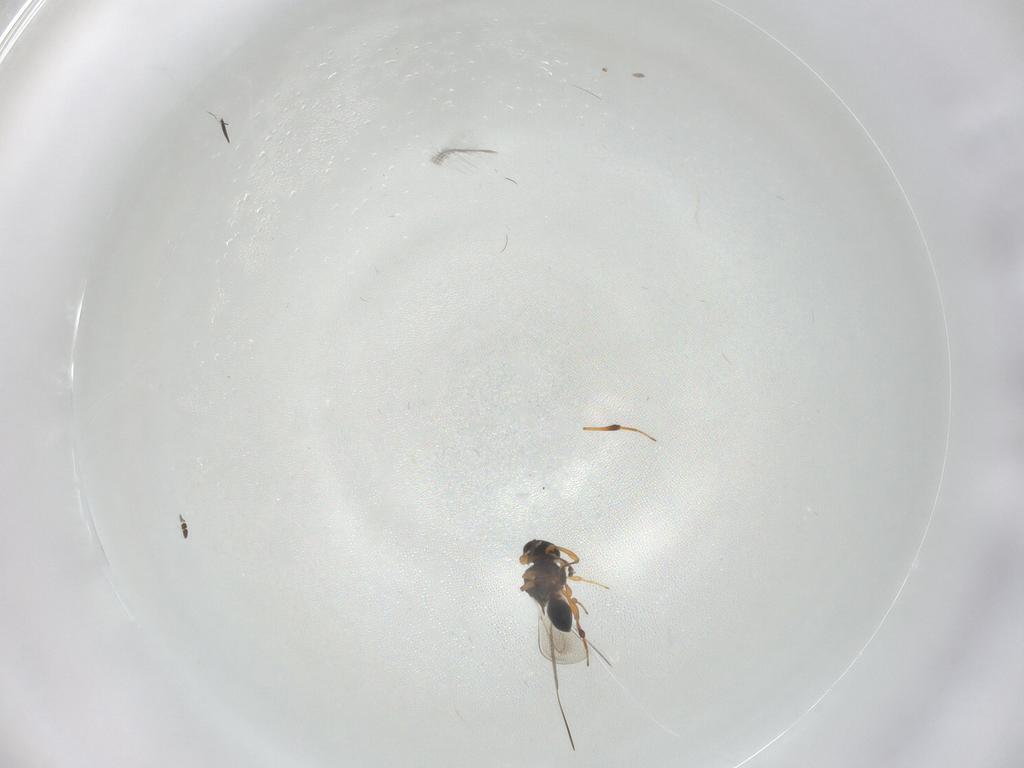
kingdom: Animalia
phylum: Arthropoda
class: Insecta
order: Hymenoptera
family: Platygastridae
